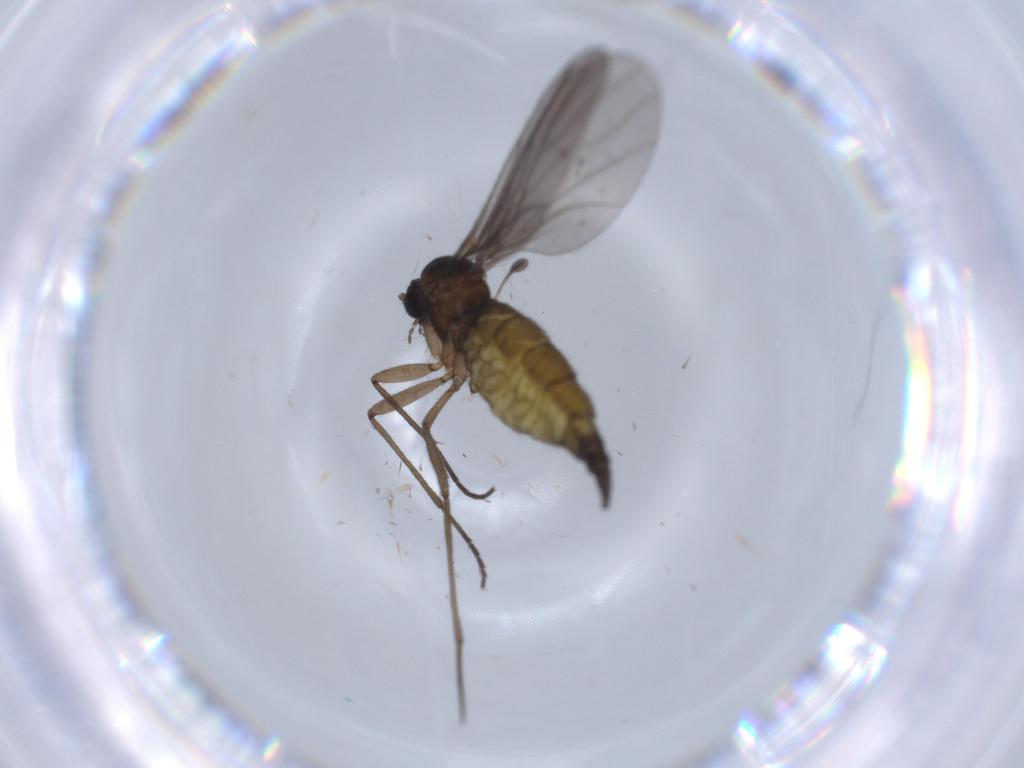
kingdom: Animalia
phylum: Arthropoda
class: Insecta
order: Diptera
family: Sciaridae
